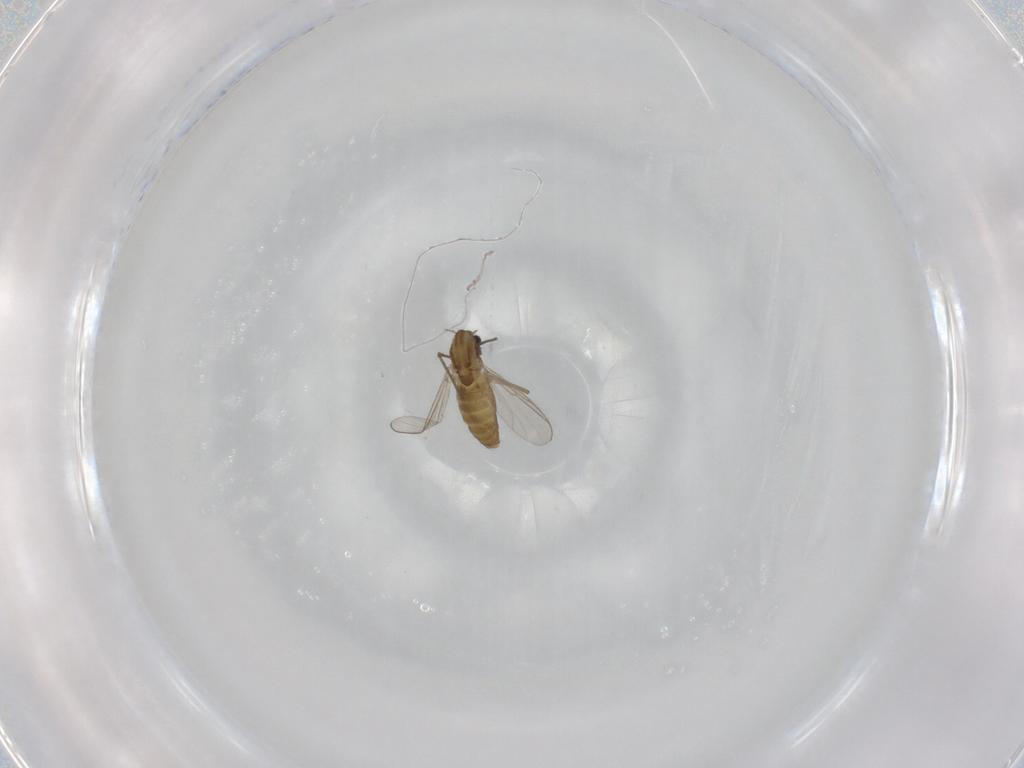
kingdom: Animalia
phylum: Arthropoda
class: Insecta
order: Diptera
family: Chironomidae
